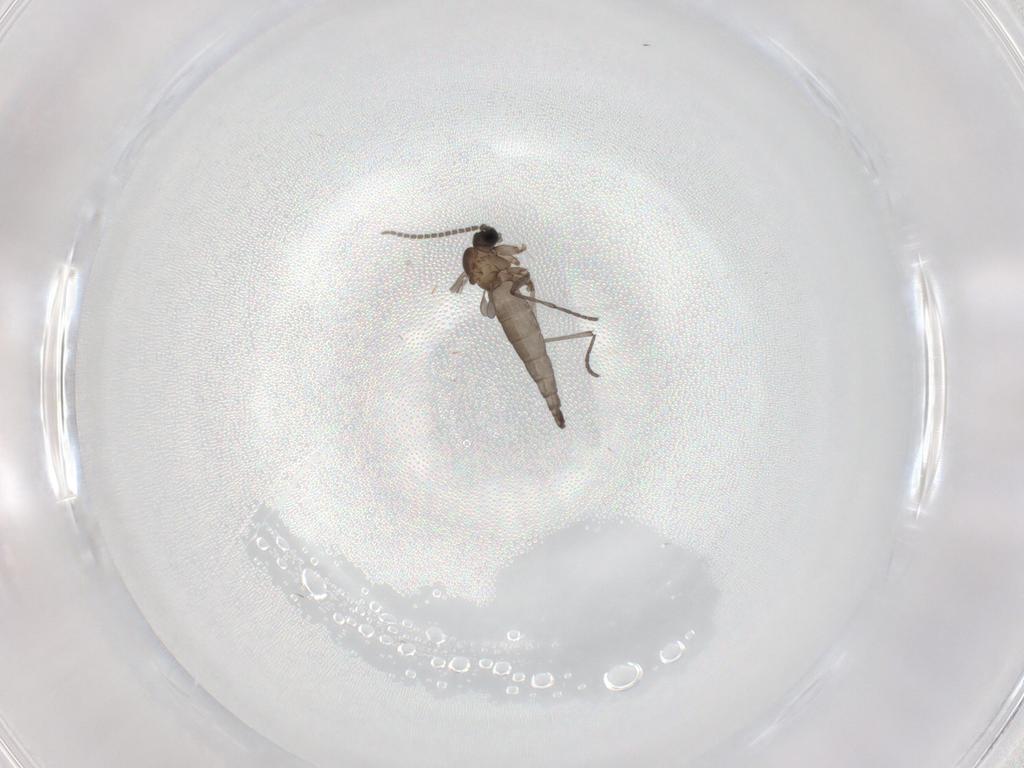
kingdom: Animalia
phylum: Arthropoda
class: Insecta
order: Diptera
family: Sciaridae
